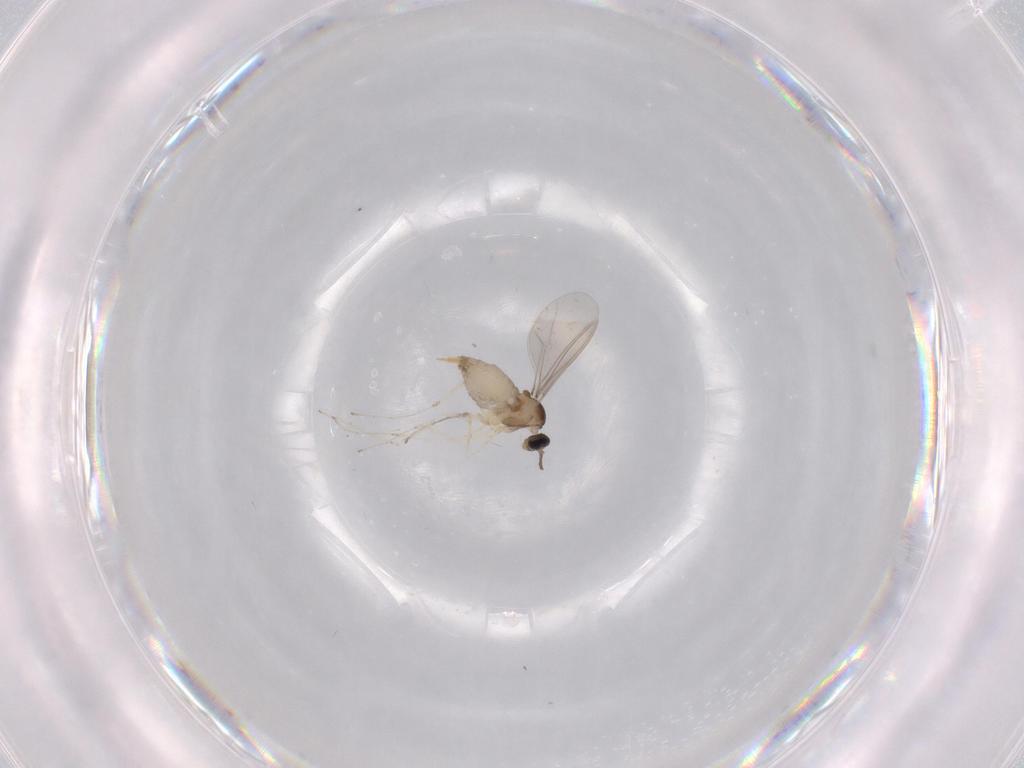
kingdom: Animalia
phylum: Arthropoda
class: Insecta
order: Diptera
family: Cecidomyiidae
